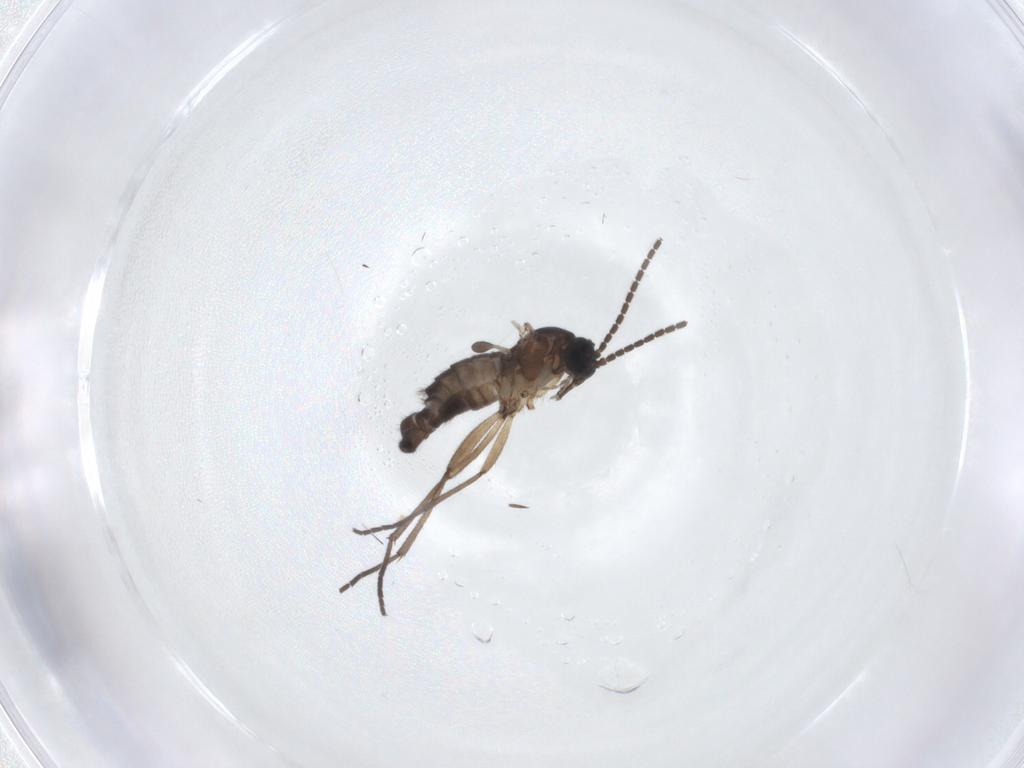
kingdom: Animalia
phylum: Arthropoda
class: Insecta
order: Diptera
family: Sciaridae
